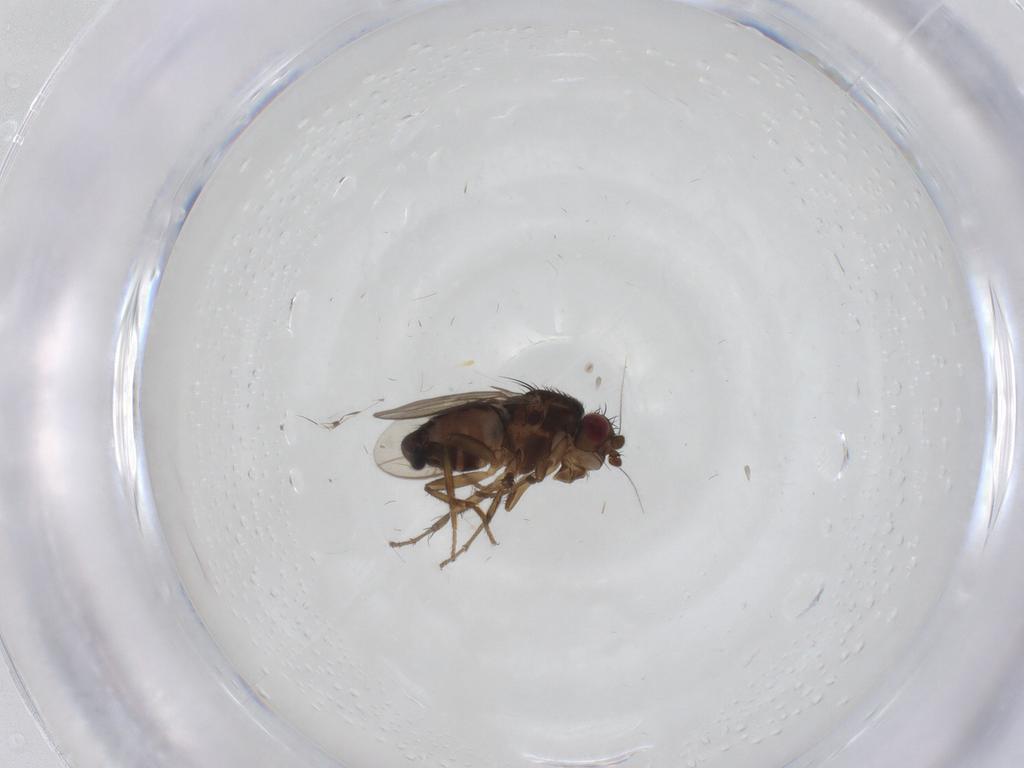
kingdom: Animalia
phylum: Arthropoda
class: Insecta
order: Diptera
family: Sphaeroceridae
